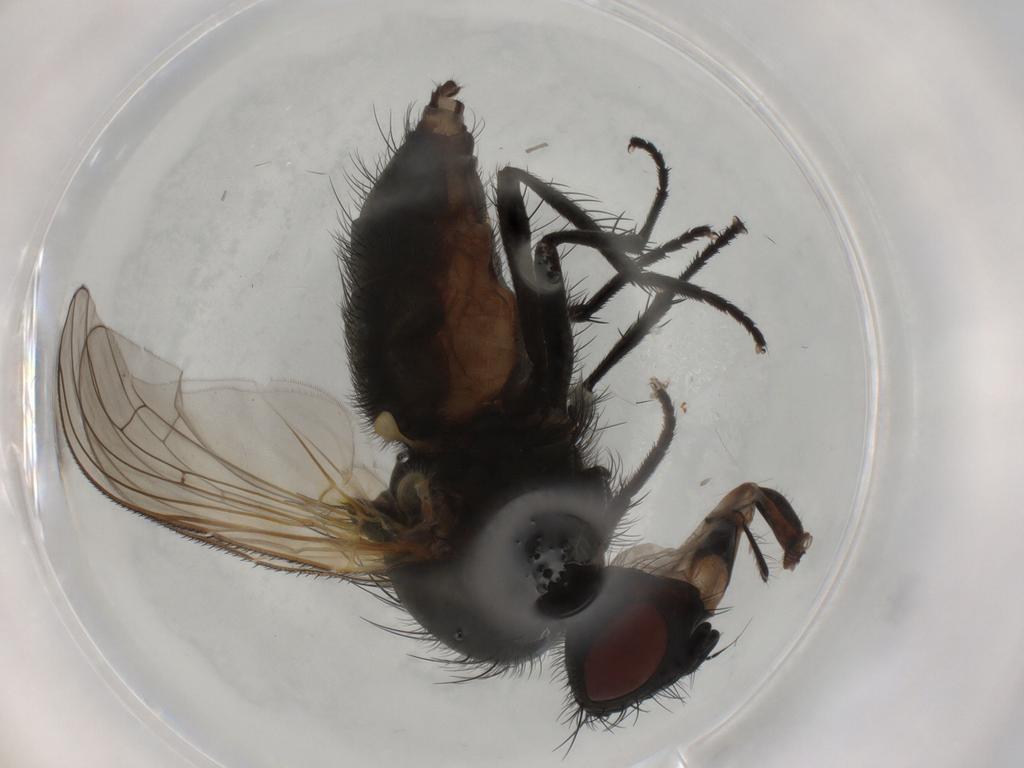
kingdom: Animalia
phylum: Arthropoda
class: Insecta
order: Diptera
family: Anthomyiidae
